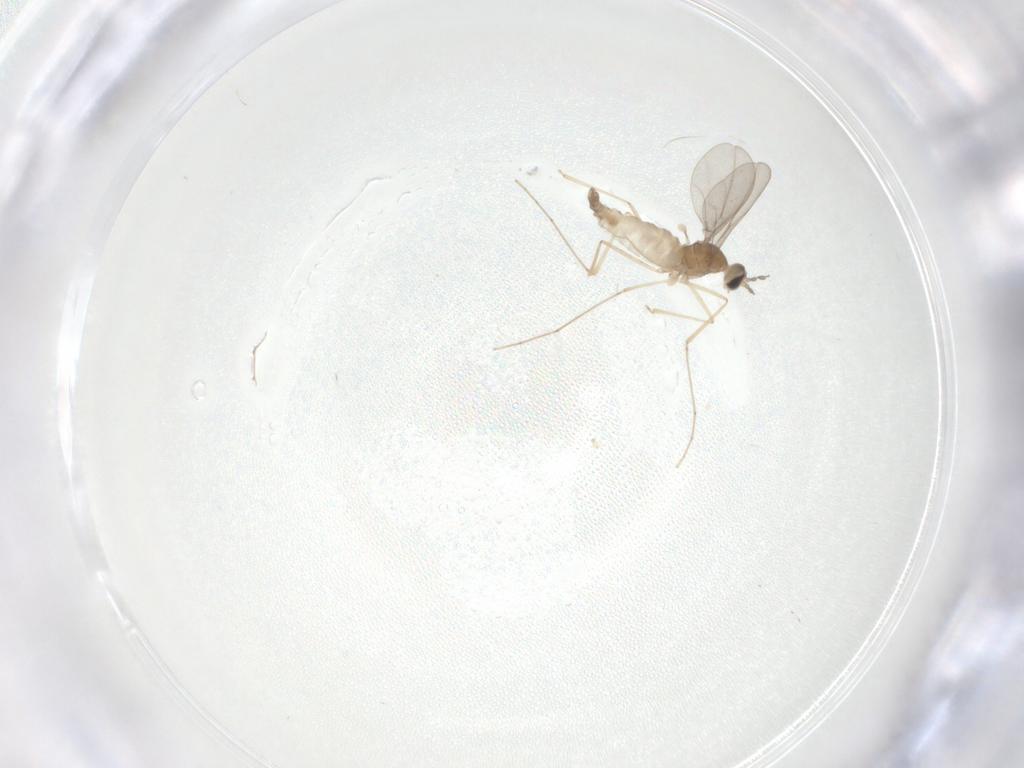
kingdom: Animalia
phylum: Arthropoda
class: Insecta
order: Diptera
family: Cecidomyiidae
